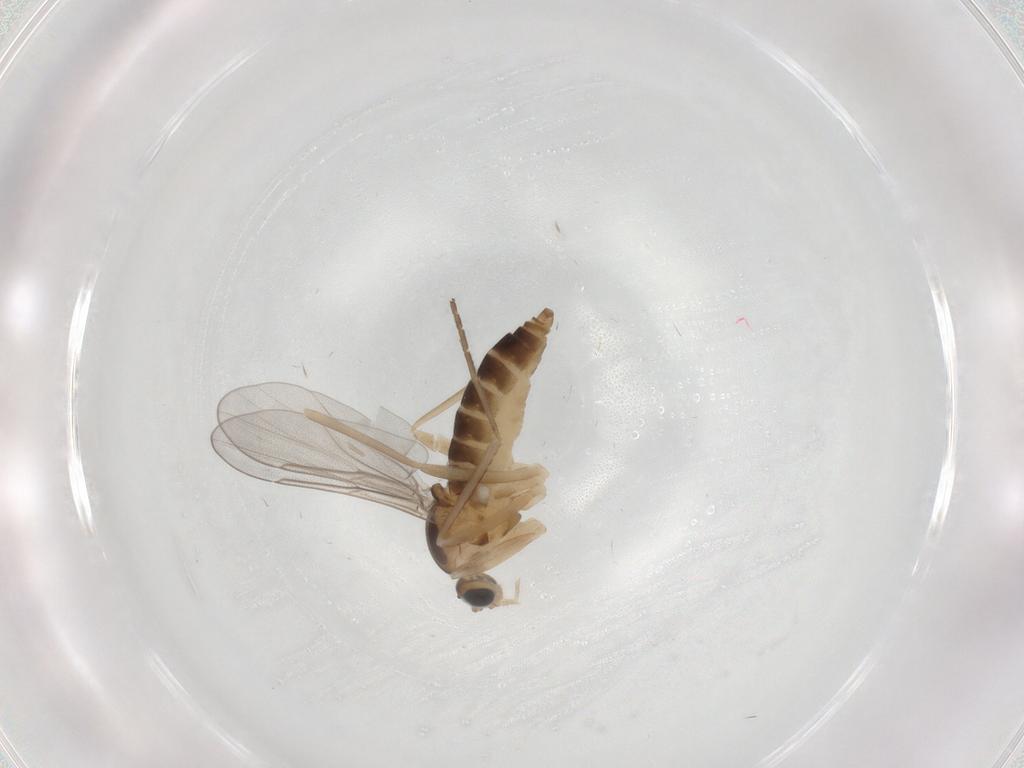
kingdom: Animalia
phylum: Arthropoda
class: Insecta
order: Diptera
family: Cecidomyiidae
